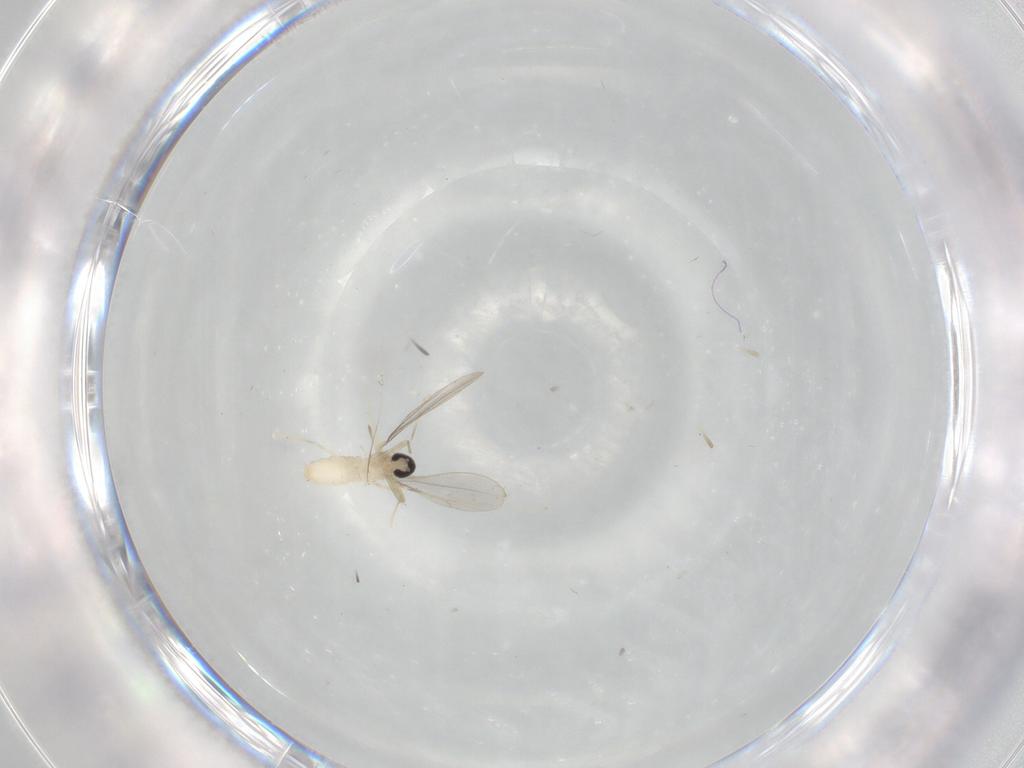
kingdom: Animalia
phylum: Arthropoda
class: Insecta
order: Diptera
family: Cecidomyiidae
